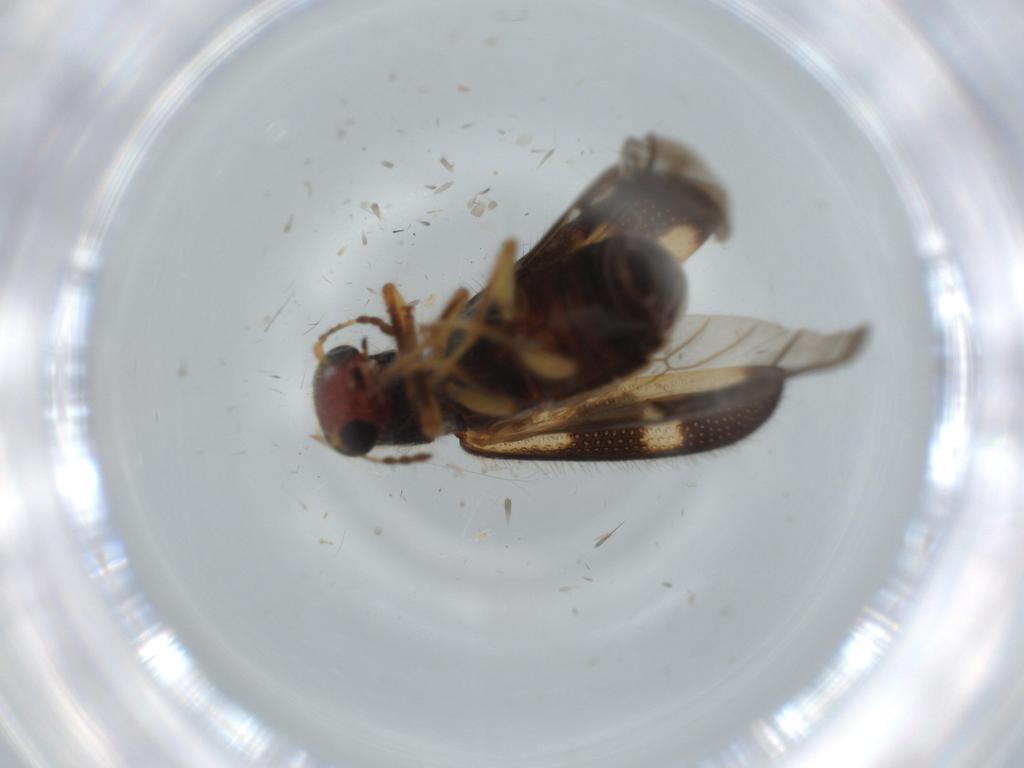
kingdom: Animalia
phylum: Arthropoda
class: Insecta
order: Coleoptera
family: Cleridae
